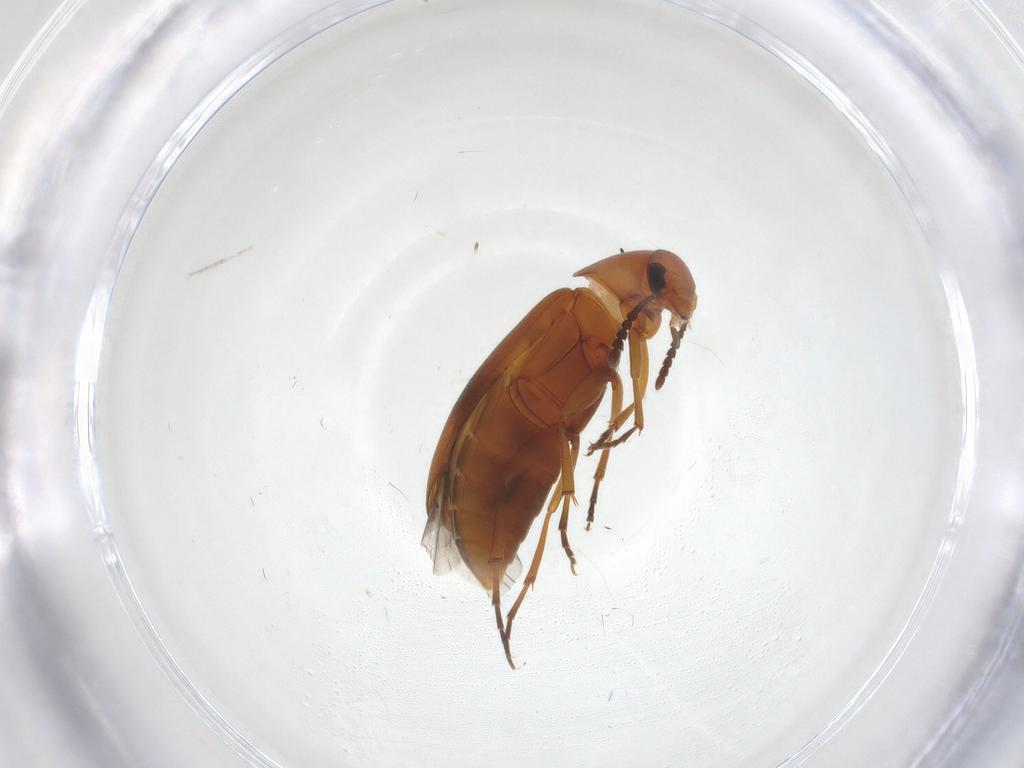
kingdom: Animalia
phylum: Arthropoda
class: Insecta
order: Coleoptera
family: Scraptiidae
